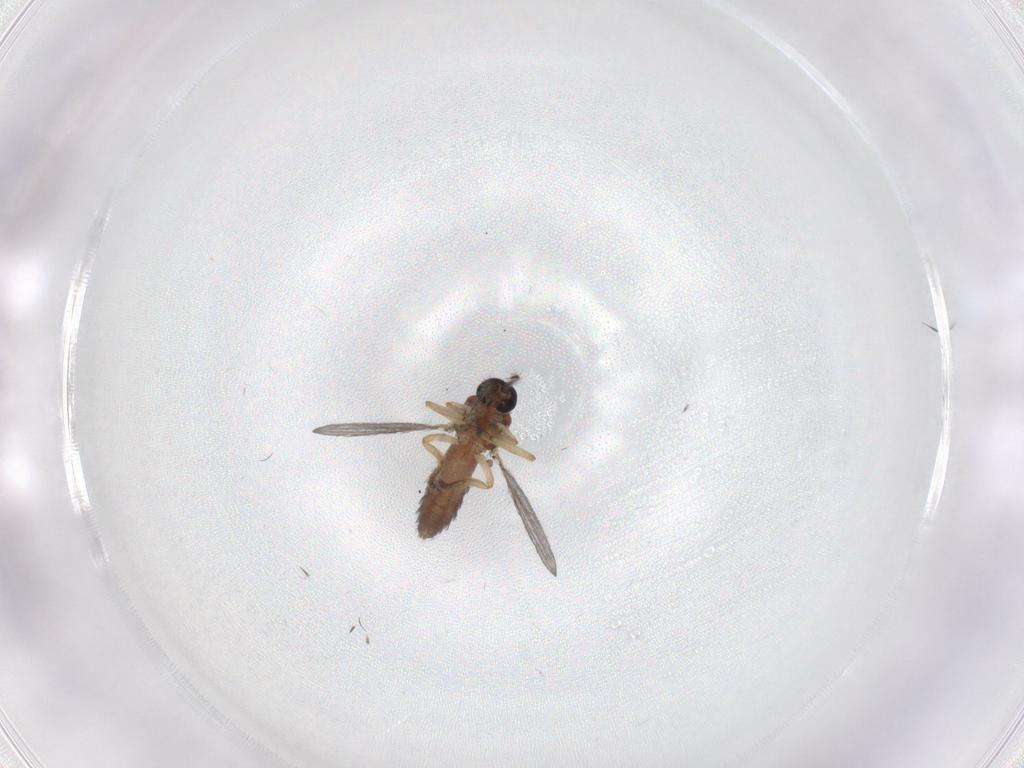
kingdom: Animalia
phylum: Arthropoda
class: Insecta
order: Diptera
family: Ceratopogonidae
